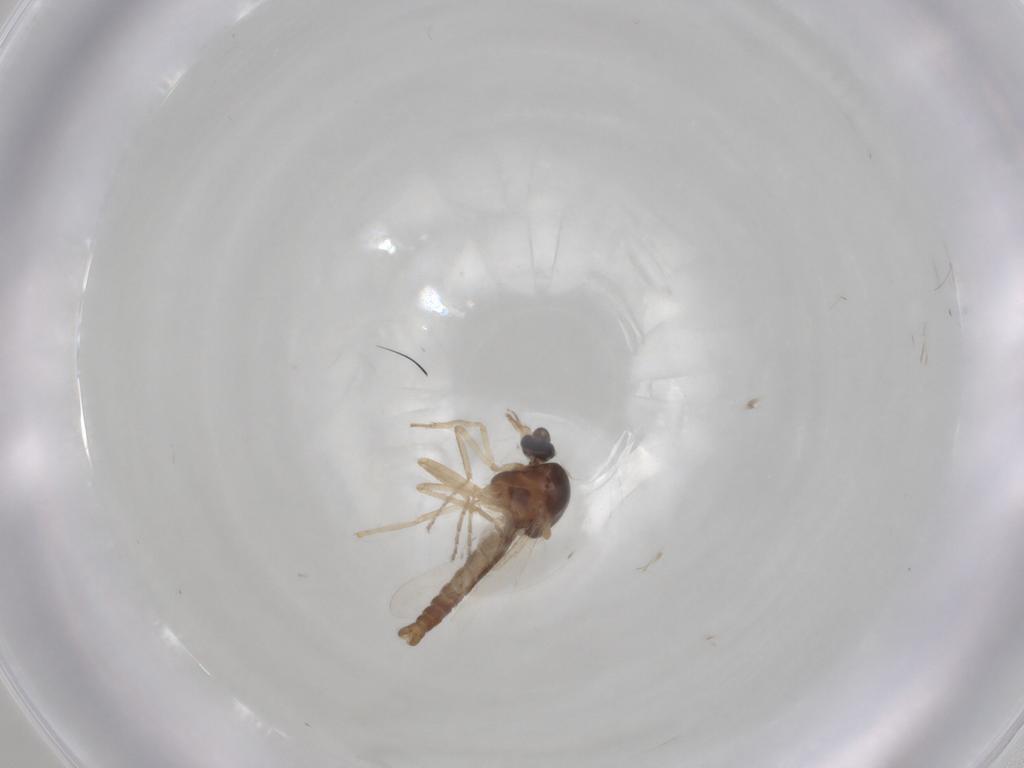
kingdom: Animalia
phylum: Arthropoda
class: Insecta
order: Diptera
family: Ceratopogonidae
